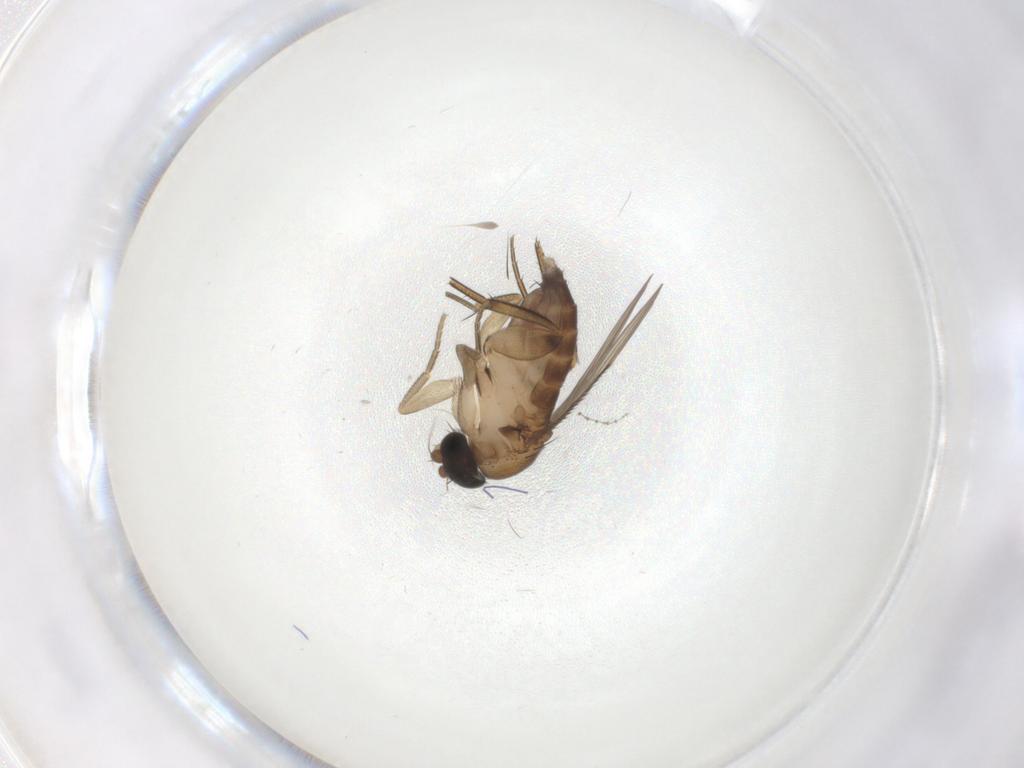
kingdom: Animalia
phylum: Arthropoda
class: Insecta
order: Diptera
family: Phoridae
